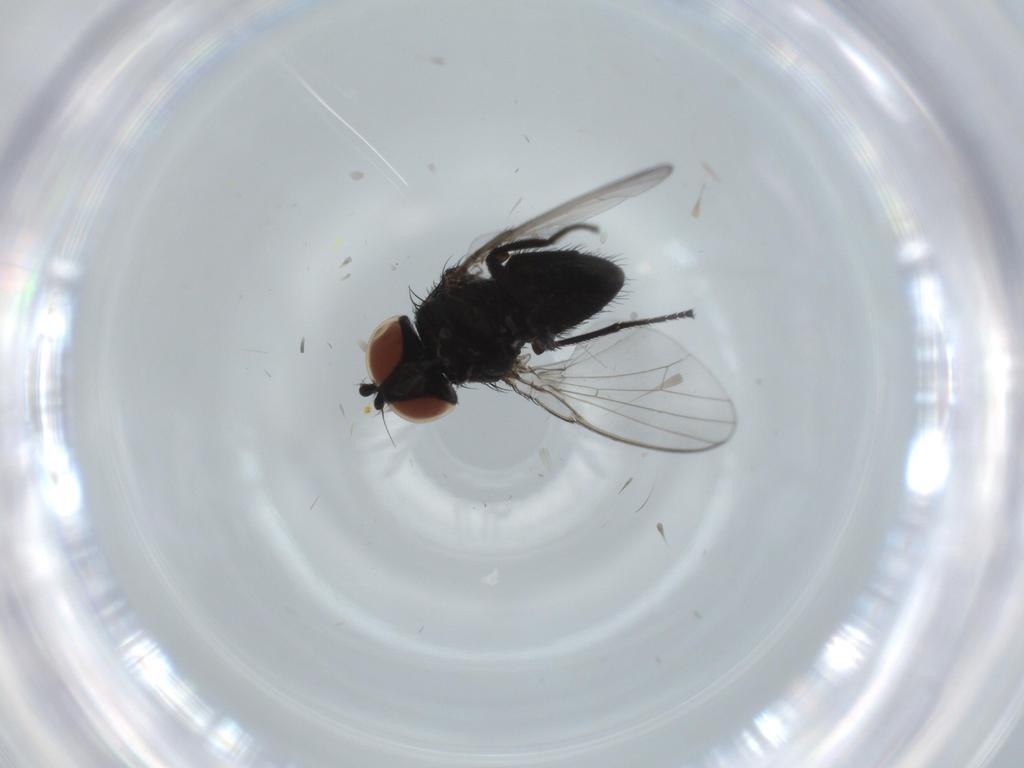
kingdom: Animalia
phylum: Arthropoda
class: Insecta
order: Diptera
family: Milichiidae
